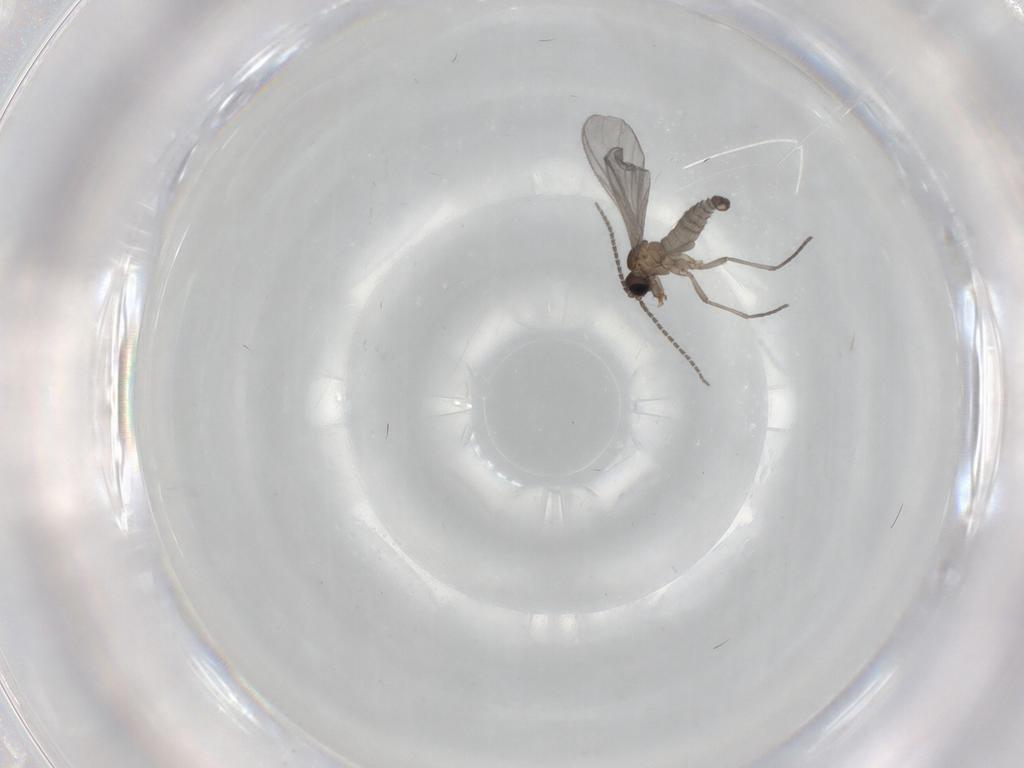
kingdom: Animalia
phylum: Arthropoda
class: Insecta
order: Diptera
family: Sciaridae
